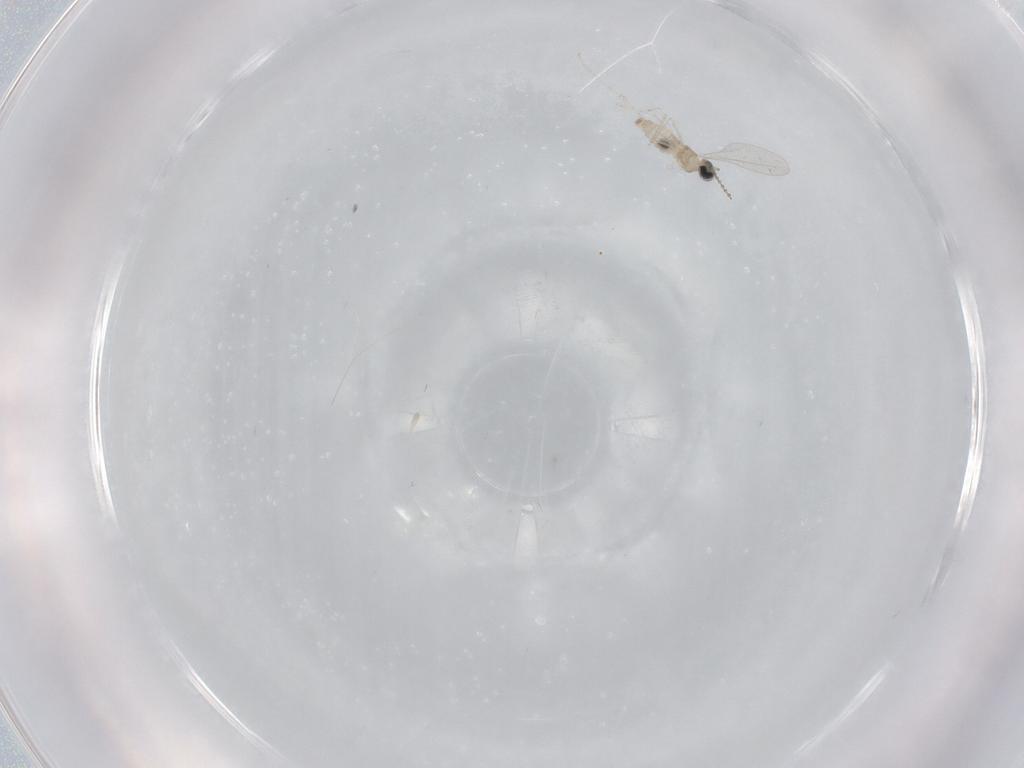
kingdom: Animalia
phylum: Arthropoda
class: Insecta
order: Diptera
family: Cecidomyiidae
